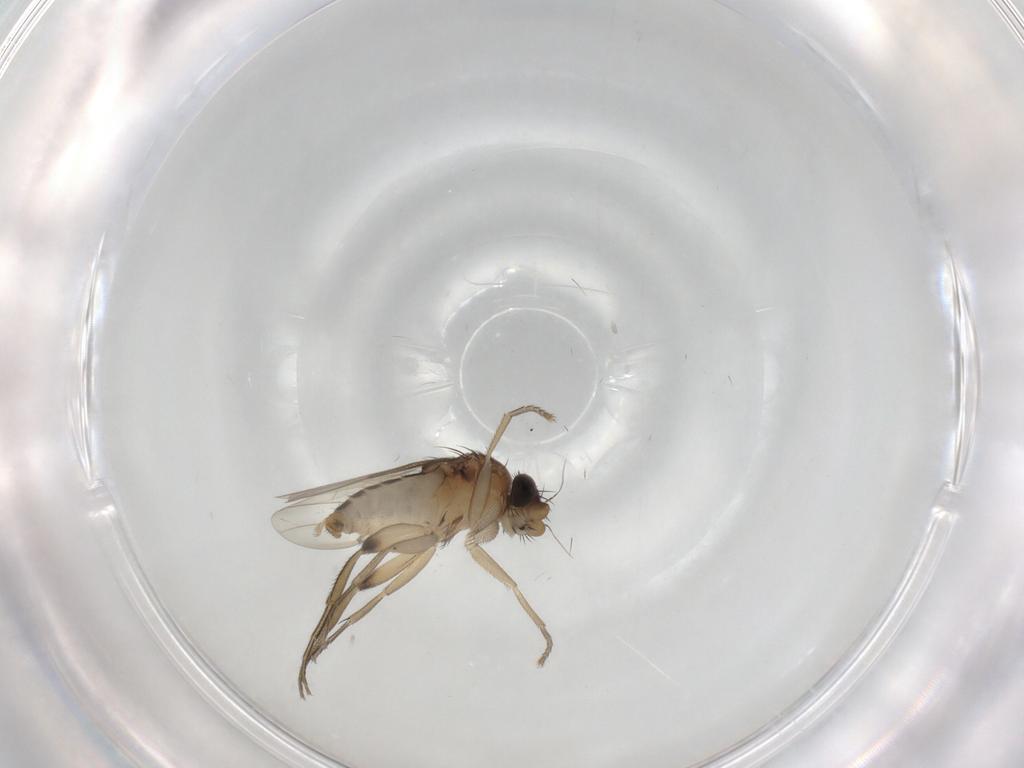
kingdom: Animalia
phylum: Arthropoda
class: Insecta
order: Diptera
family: Phoridae
